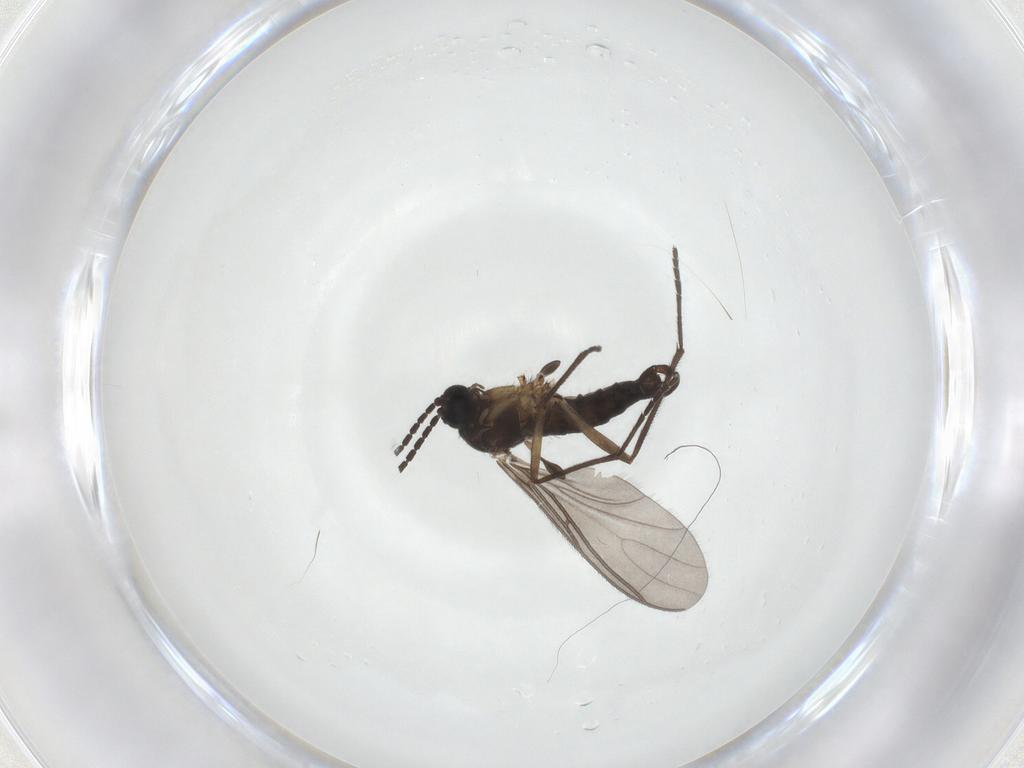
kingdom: Animalia
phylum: Arthropoda
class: Insecta
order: Diptera
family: Sciaridae
